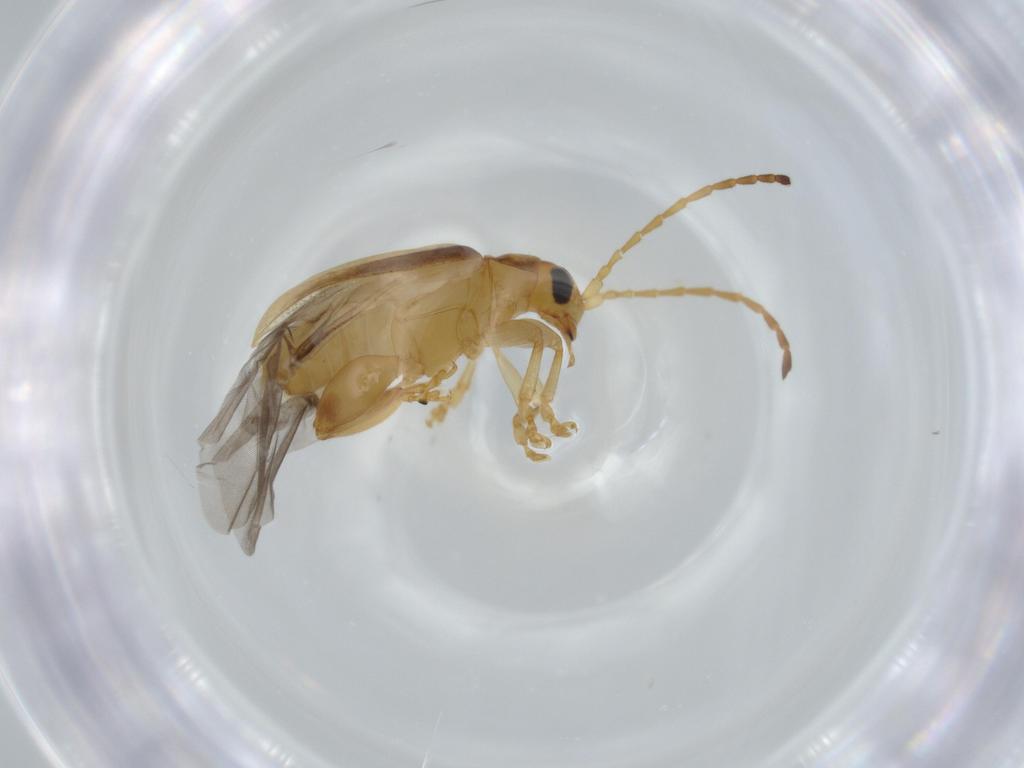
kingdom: Animalia
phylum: Arthropoda
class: Insecta
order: Coleoptera
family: Chrysomelidae
